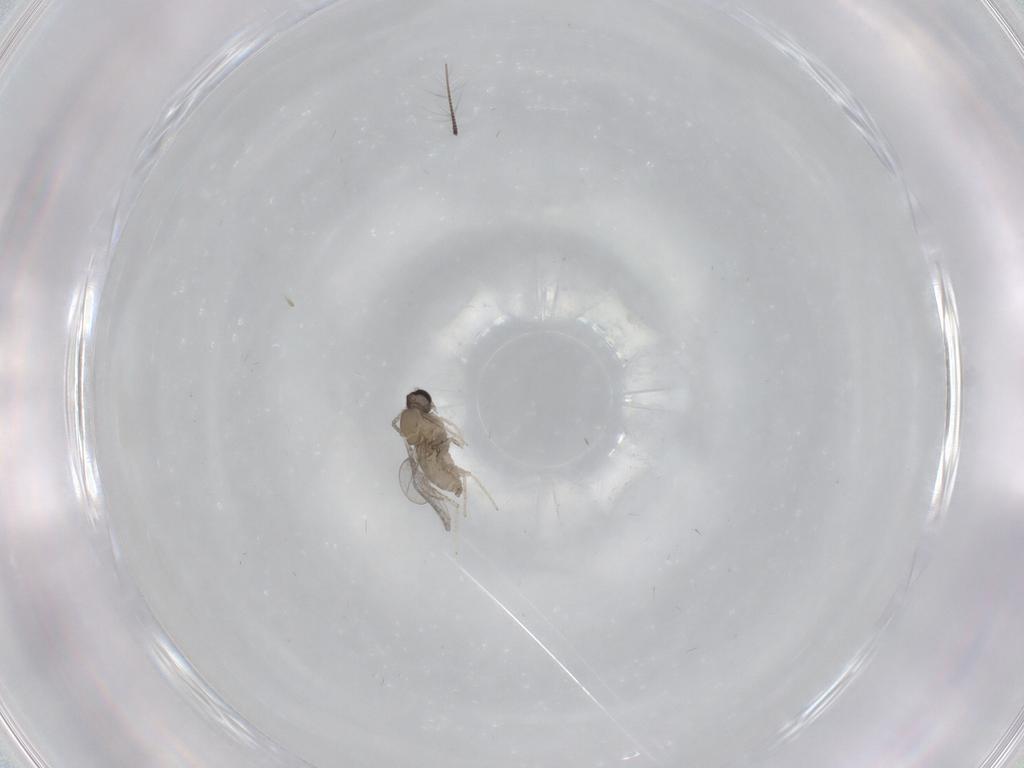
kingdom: Animalia
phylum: Arthropoda
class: Insecta
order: Diptera
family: Cecidomyiidae
